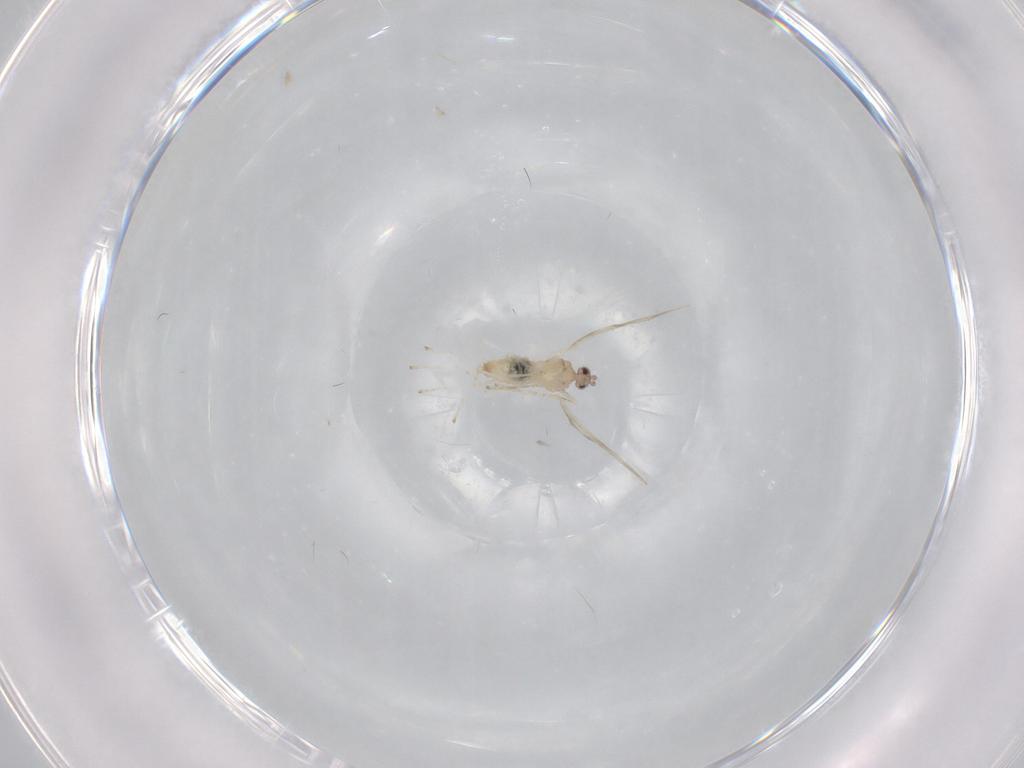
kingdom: Animalia
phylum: Arthropoda
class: Insecta
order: Diptera
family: Cecidomyiidae
